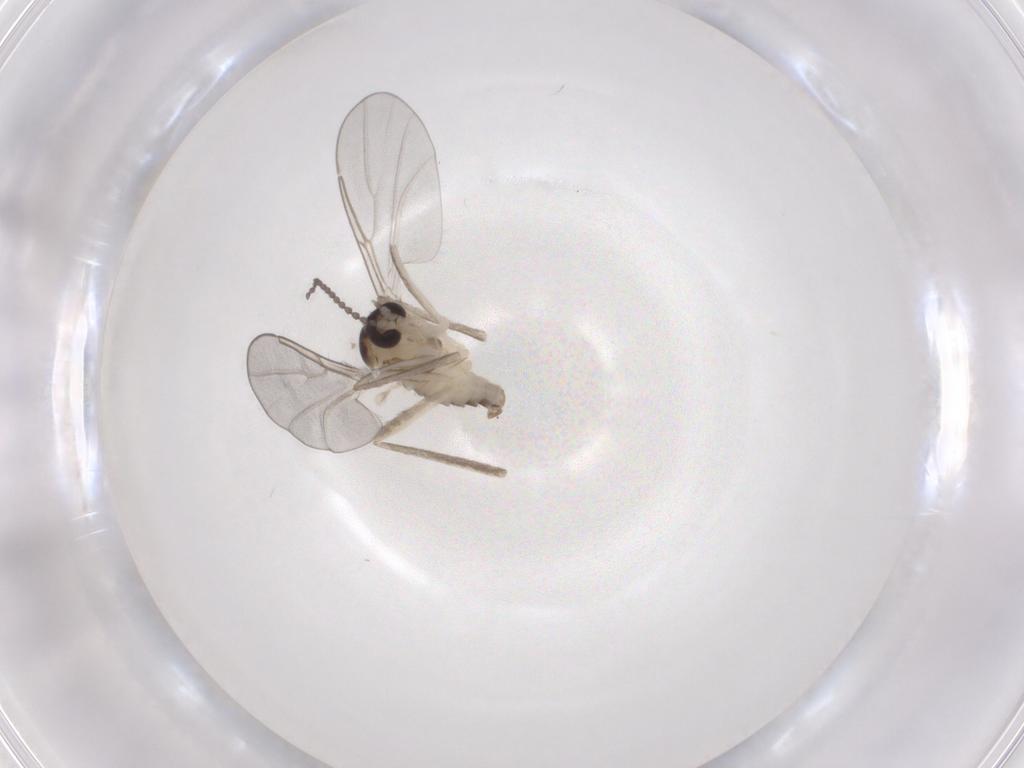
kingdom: Animalia
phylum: Arthropoda
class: Insecta
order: Diptera
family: Cecidomyiidae
